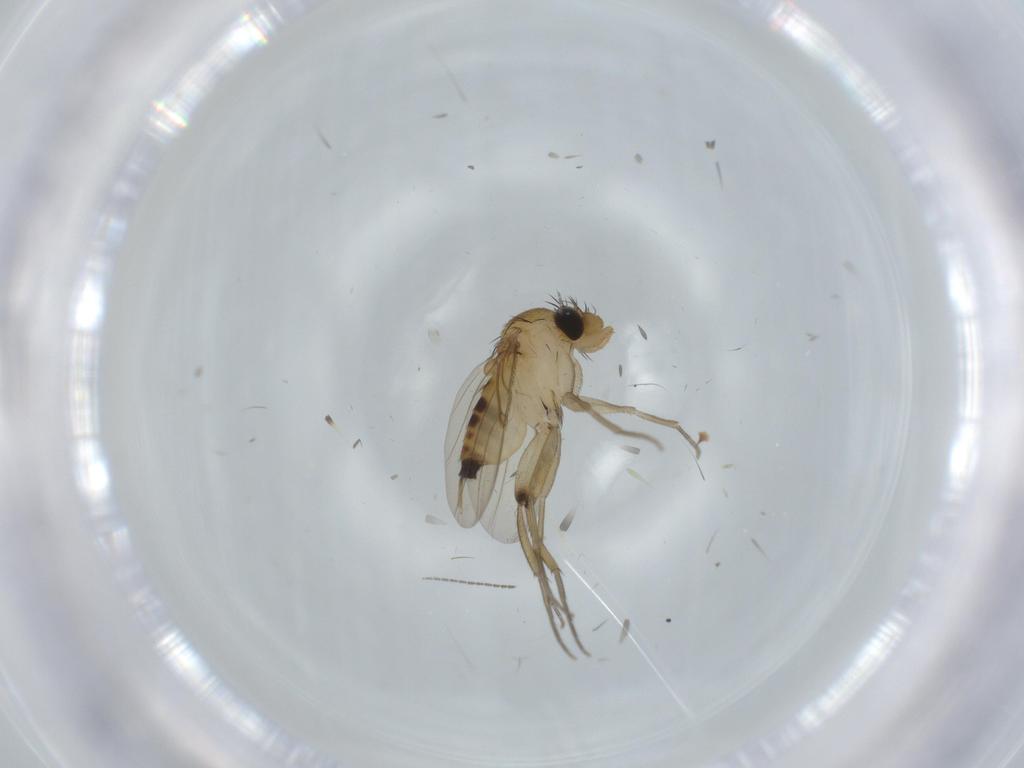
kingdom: Animalia
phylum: Arthropoda
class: Insecta
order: Diptera
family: Phoridae
